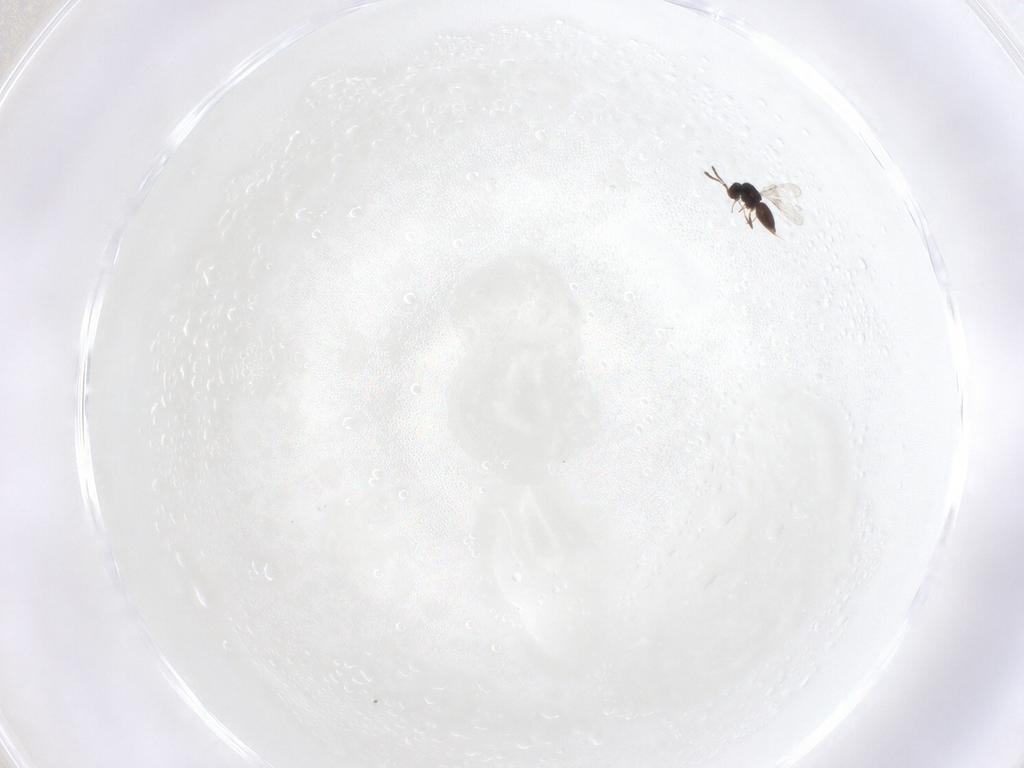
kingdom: Animalia
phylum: Arthropoda
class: Insecta
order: Hymenoptera
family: Ceraphronidae
